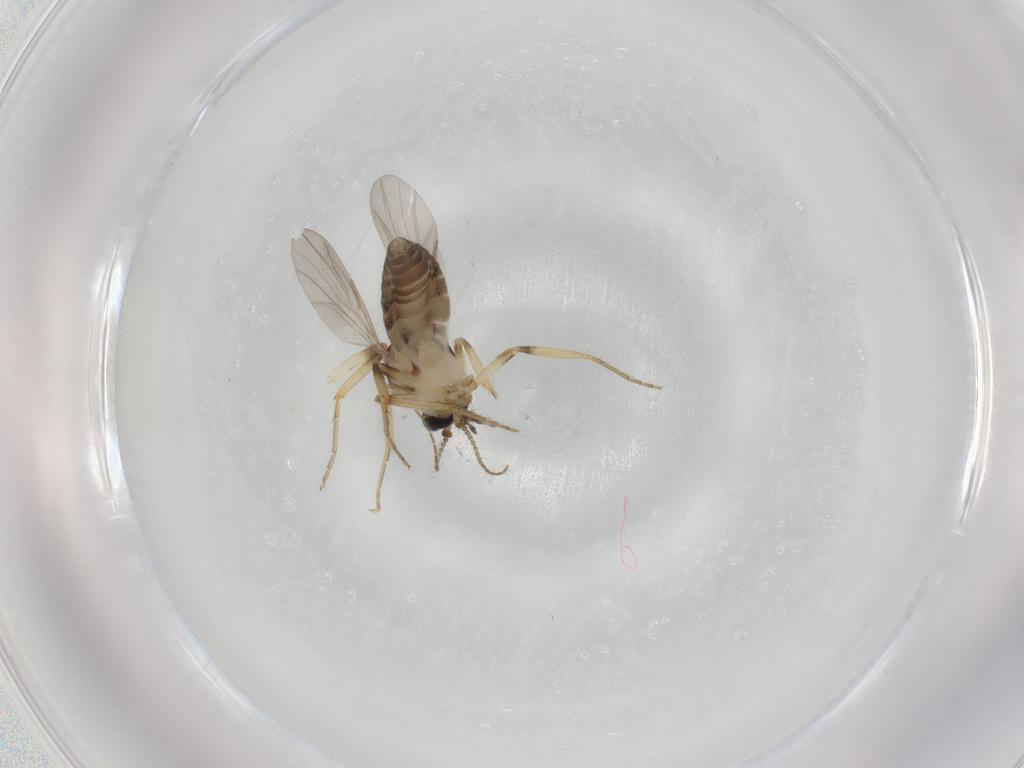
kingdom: Animalia
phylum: Arthropoda
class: Insecta
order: Diptera
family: Ceratopogonidae
